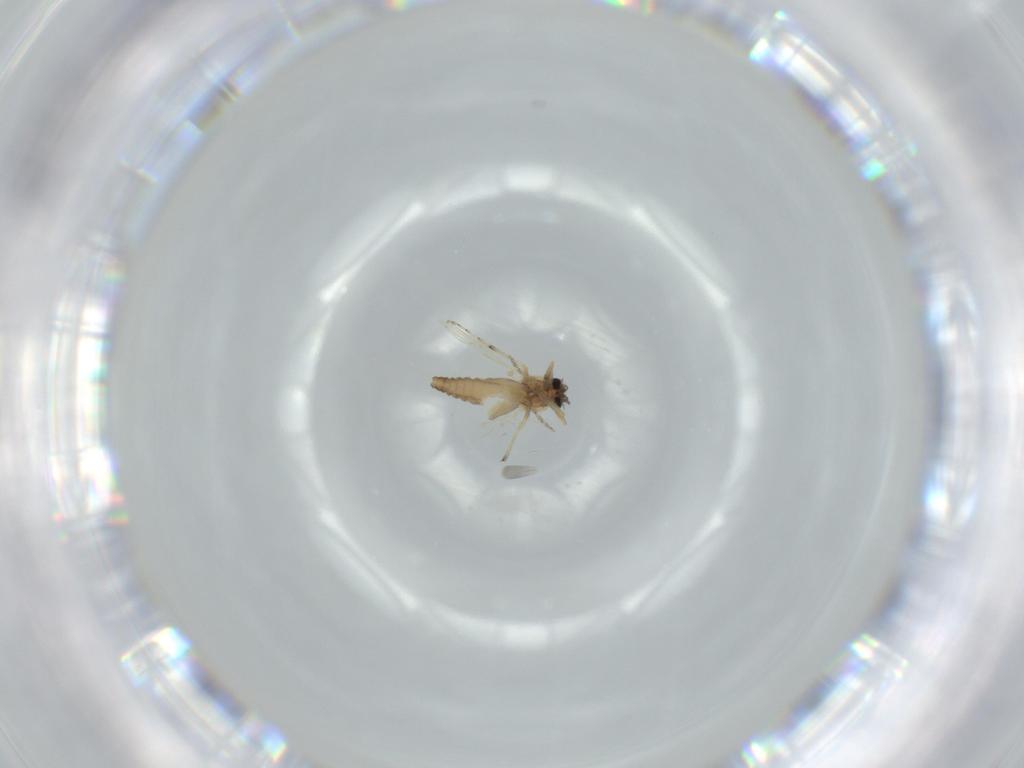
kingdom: Animalia
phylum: Arthropoda
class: Insecta
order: Diptera
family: Ceratopogonidae
